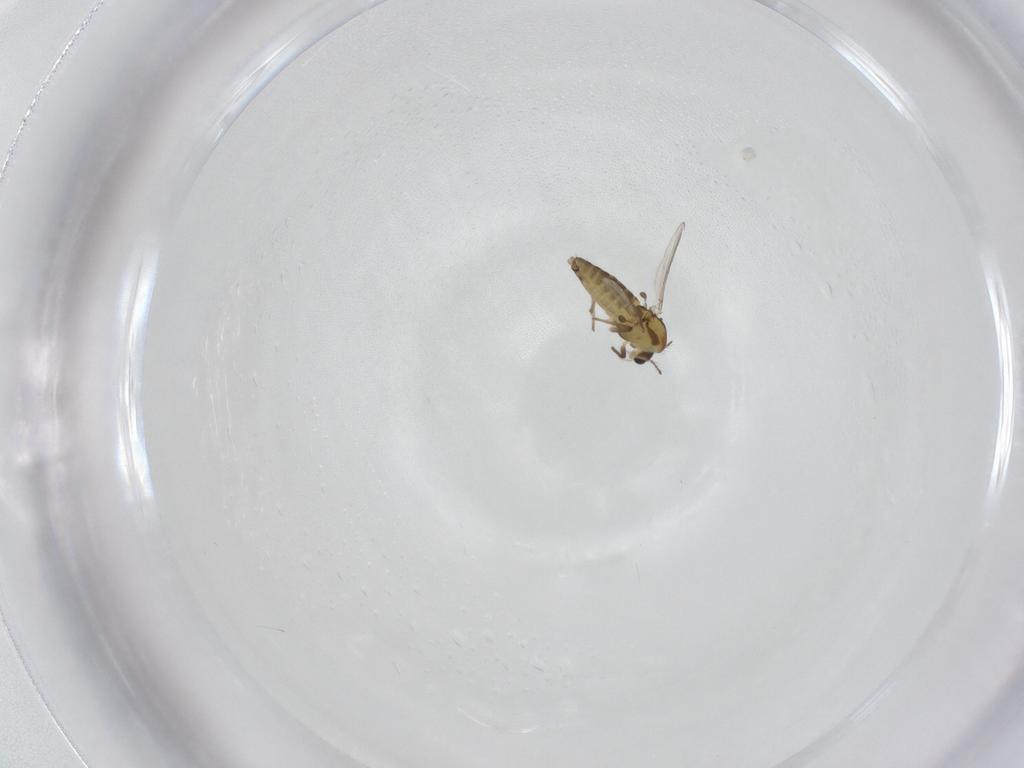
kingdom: Animalia
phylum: Arthropoda
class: Insecta
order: Diptera
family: Chironomidae
